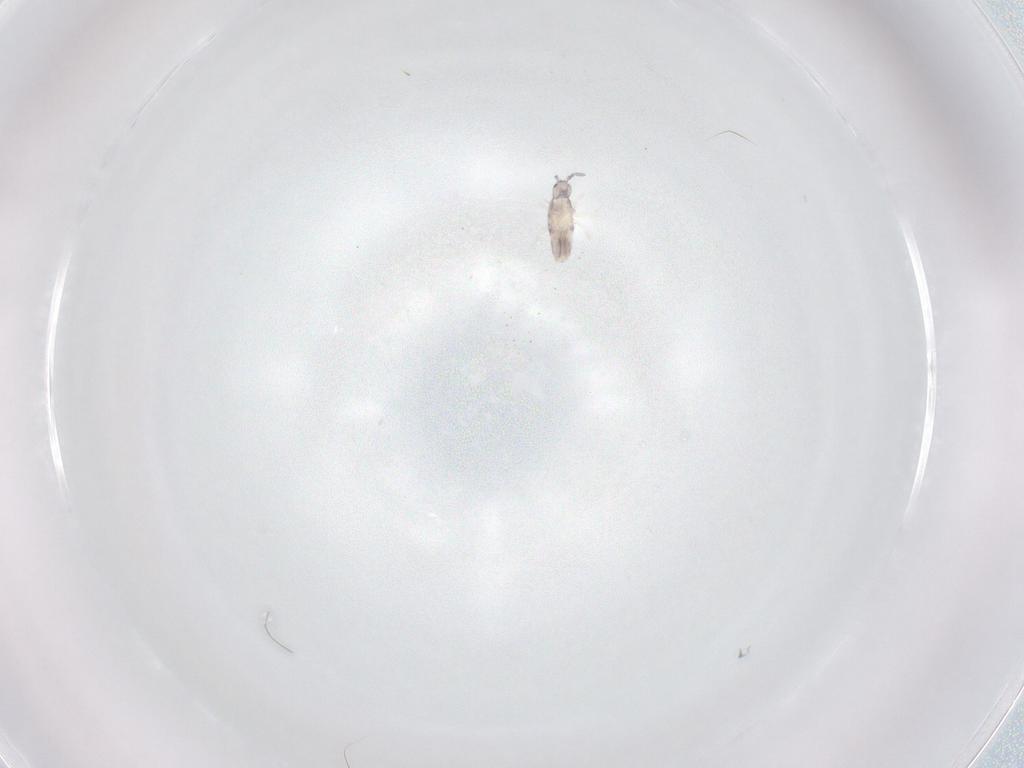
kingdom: Animalia
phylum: Arthropoda
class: Collembola
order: Entomobryomorpha
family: Entomobryidae
